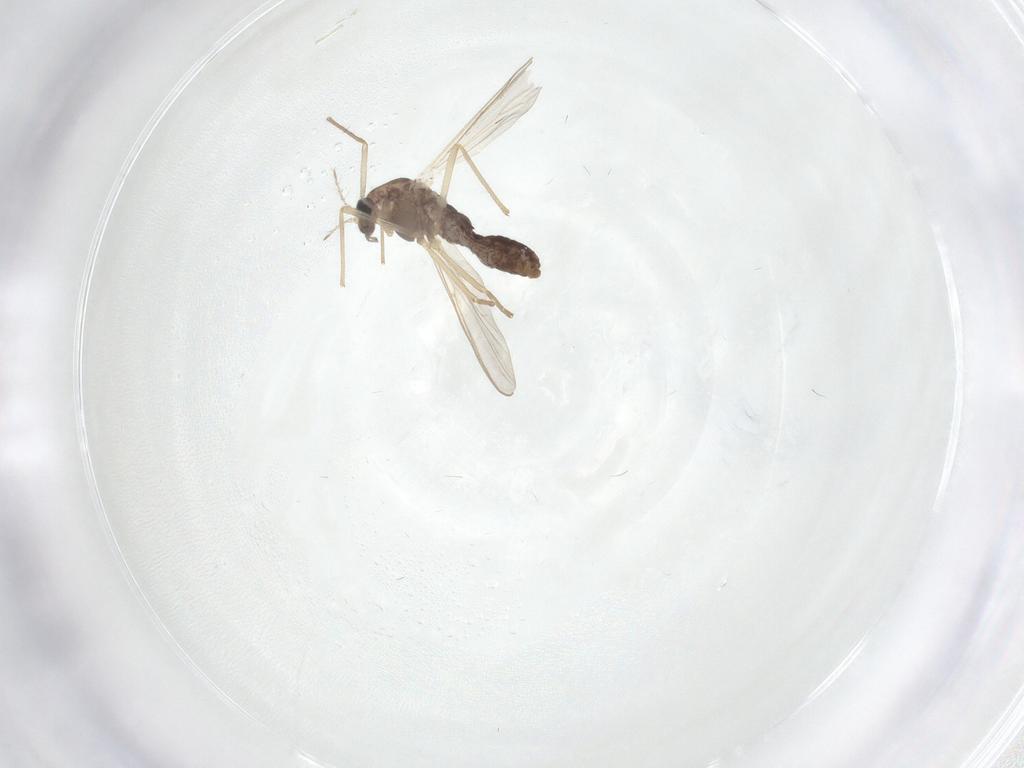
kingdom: Animalia
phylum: Arthropoda
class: Insecta
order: Diptera
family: Chironomidae
